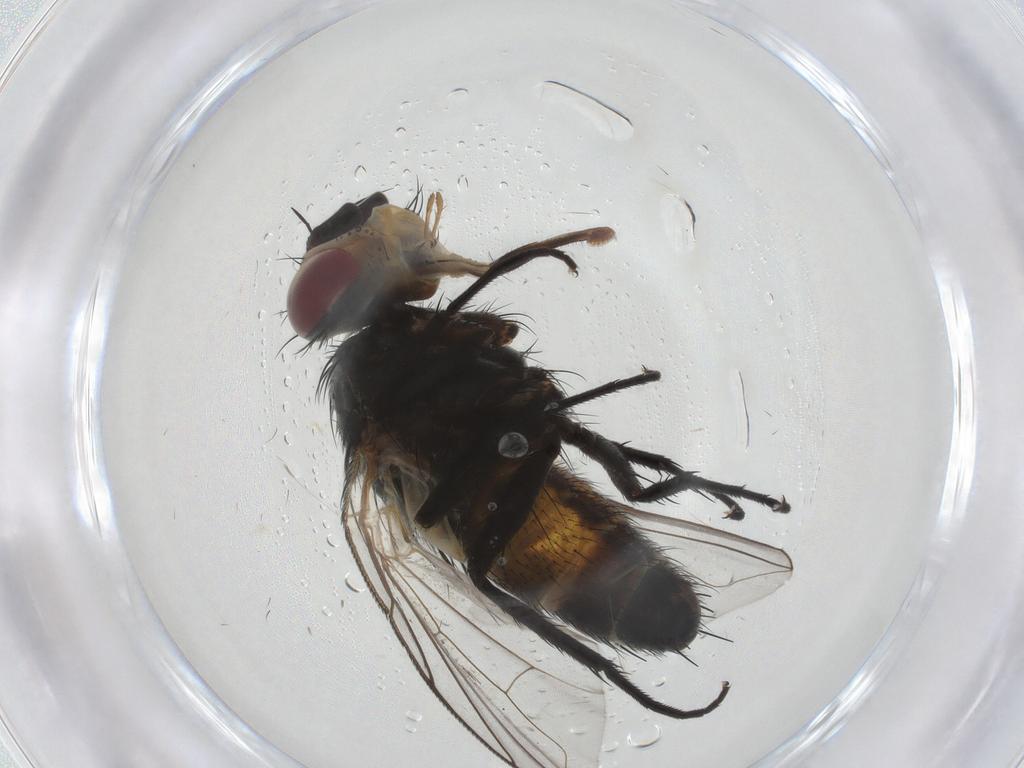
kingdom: Animalia
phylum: Arthropoda
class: Insecta
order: Diptera
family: Tachinidae
